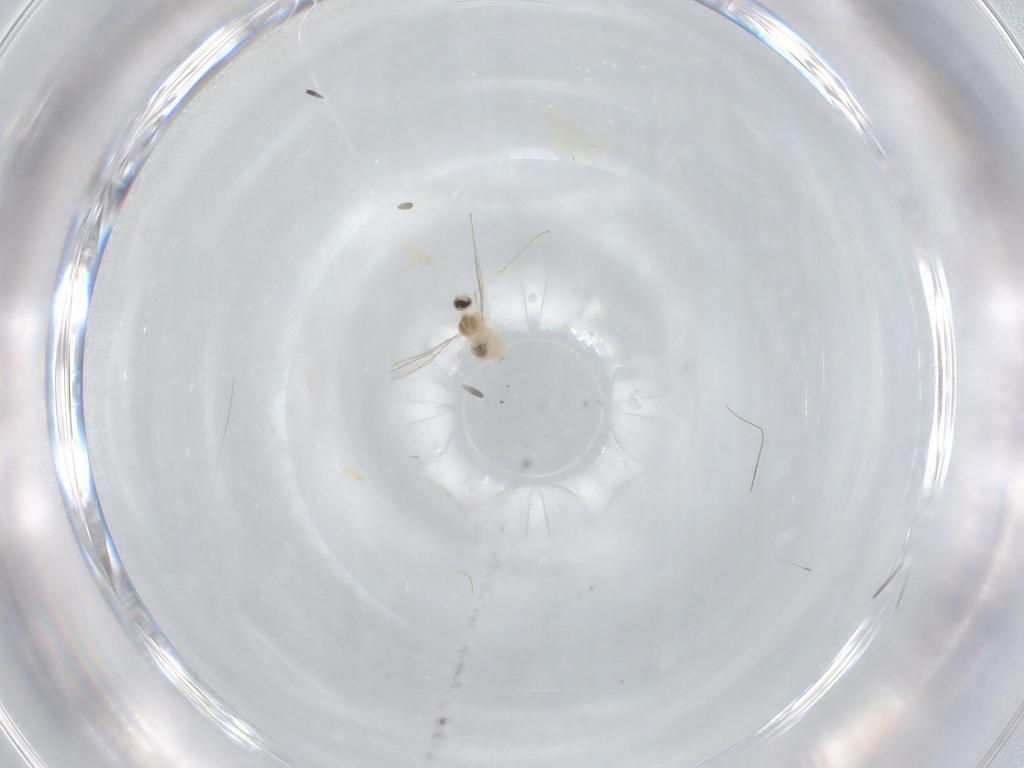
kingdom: Animalia
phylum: Arthropoda
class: Insecta
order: Diptera
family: Cecidomyiidae
